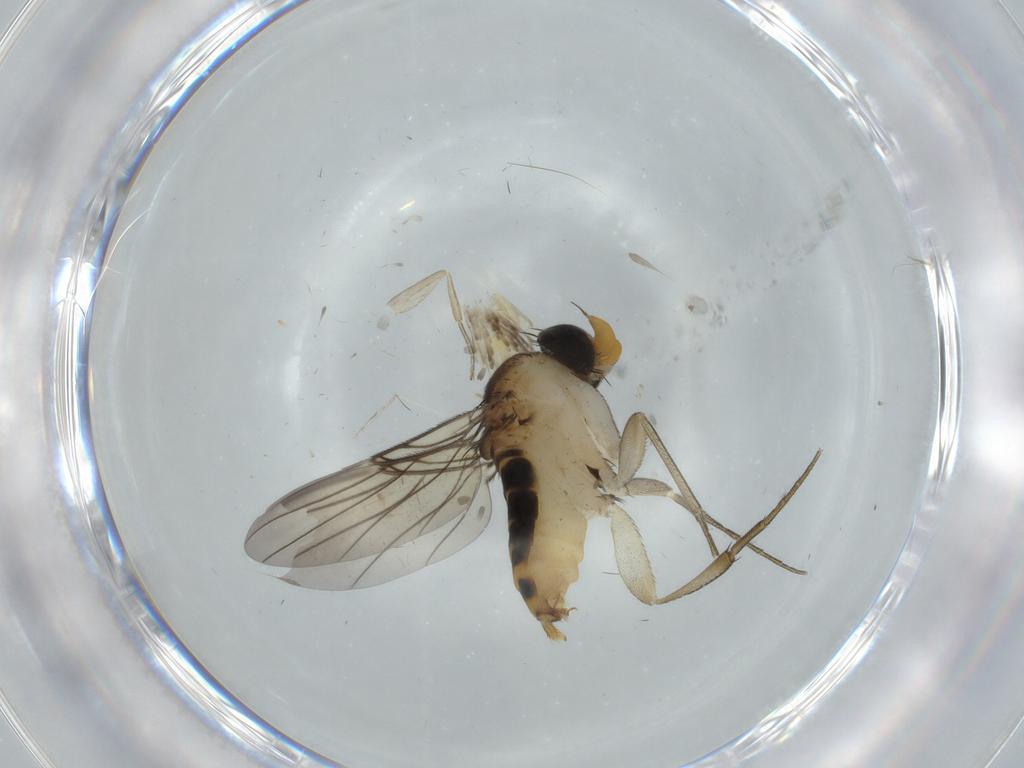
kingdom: Animalia
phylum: Arthropoda
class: Insecta
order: Diptera
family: Phoridae
